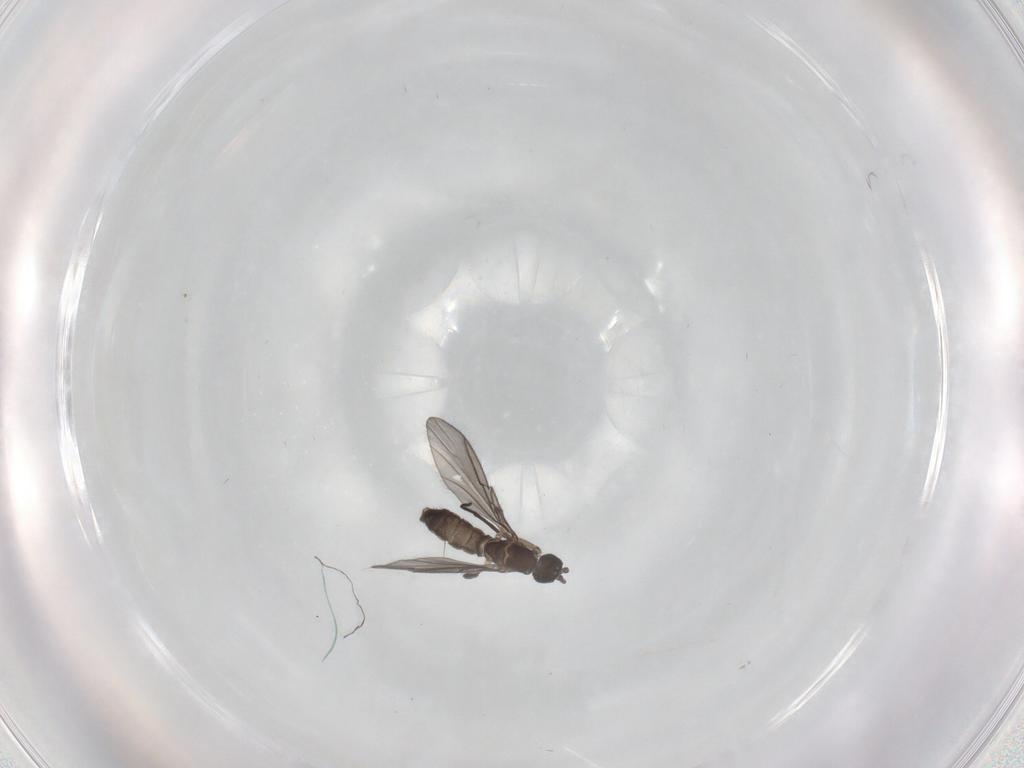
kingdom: Animalia
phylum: Arthropoda
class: Insecta
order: Diptera
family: Sciaridae
